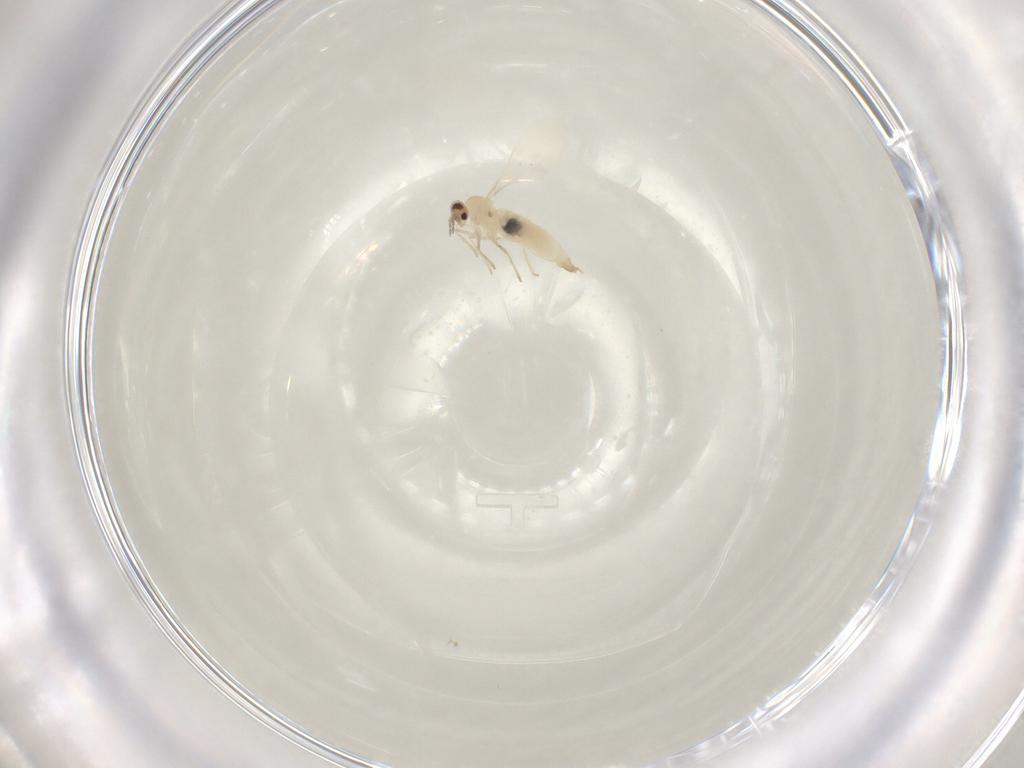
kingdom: Animalia
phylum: Arthropoda
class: Insecta
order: Diptera
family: Cecidomyiidae
